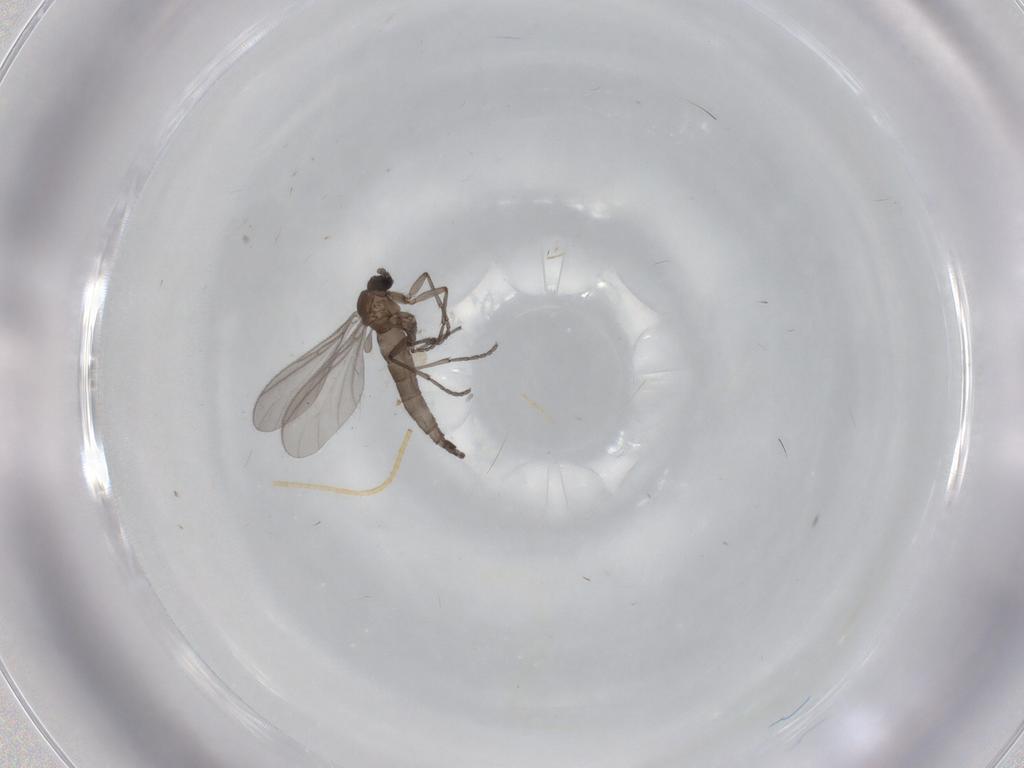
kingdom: Animalia
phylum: Arthropoda
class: Insecta
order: Diptera
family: Sciaridae
